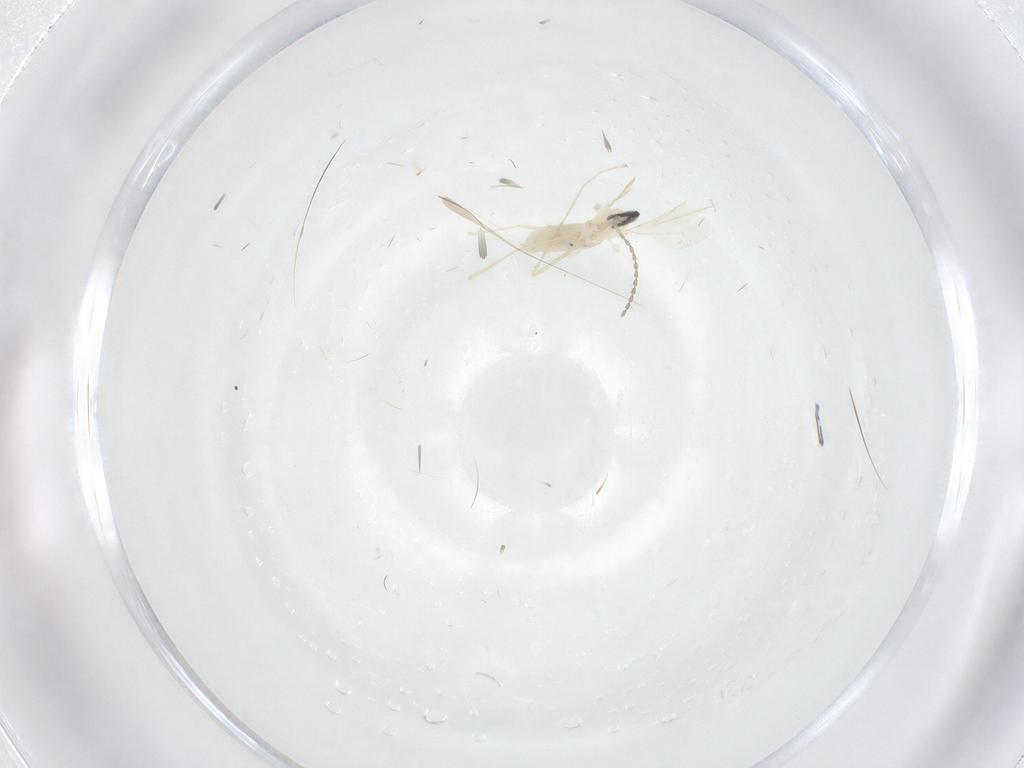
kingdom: Animalia
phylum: Arthropoda
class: Insecta
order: Diptera
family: Cecidomyiidae
